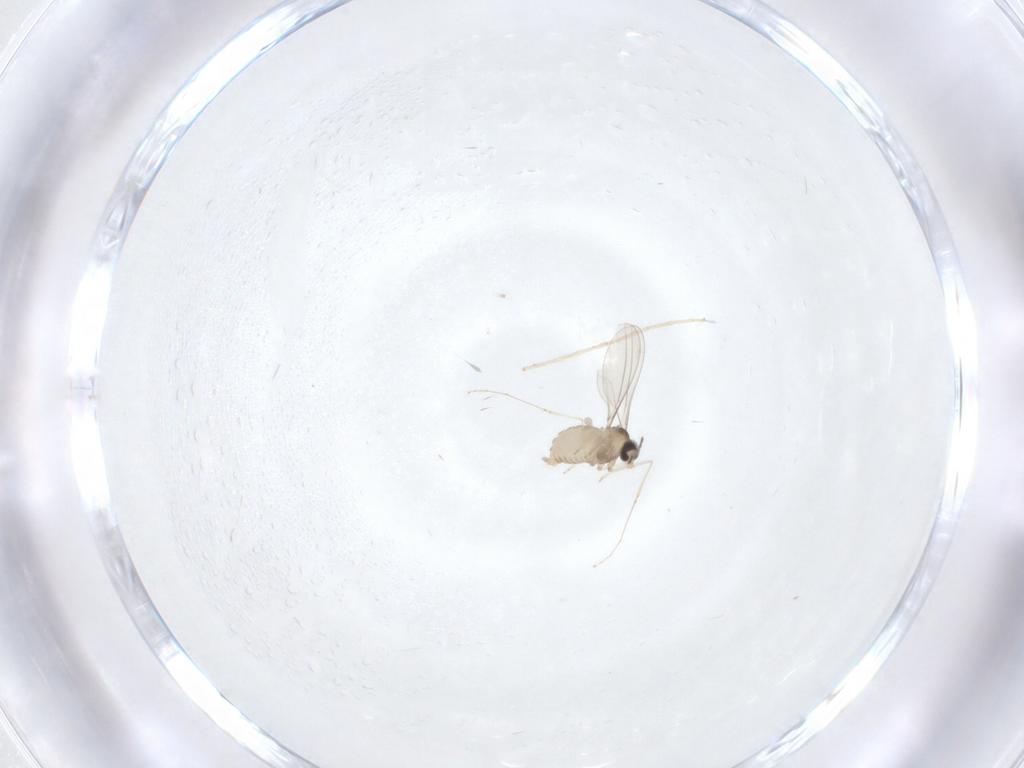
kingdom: Animalia
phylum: Arthropoda
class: Insecta
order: Diptera
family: Cecidomyiidae
